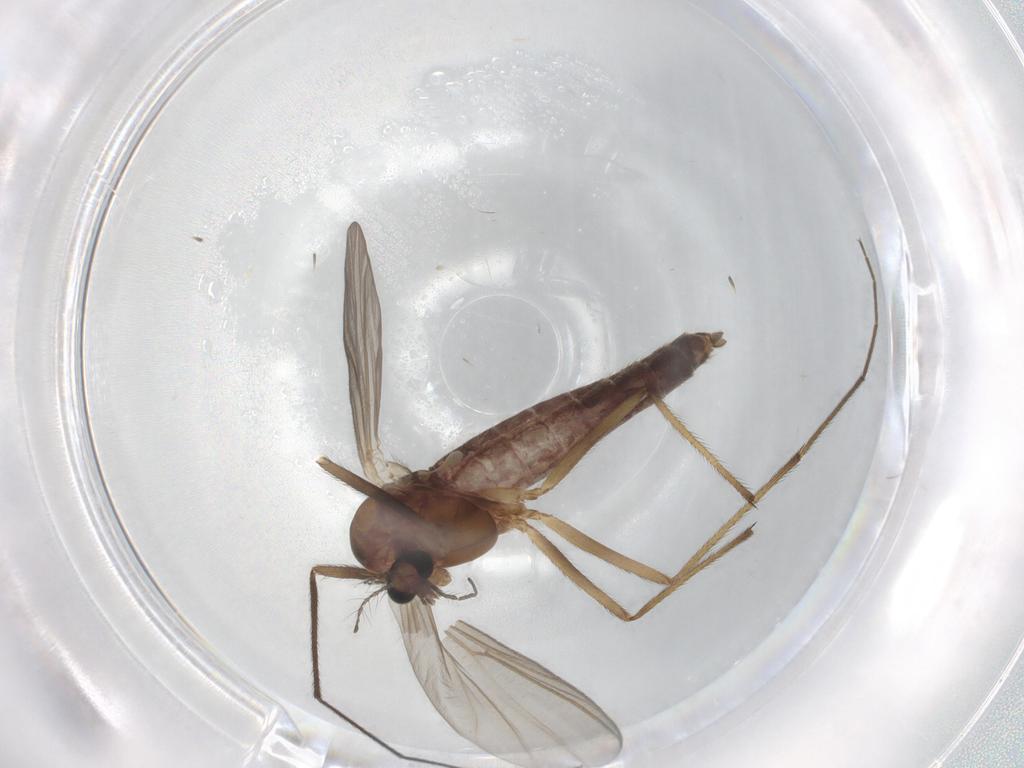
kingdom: Animalia
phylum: Arthropoda
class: Insecta
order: Diptera
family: Chironomidae
